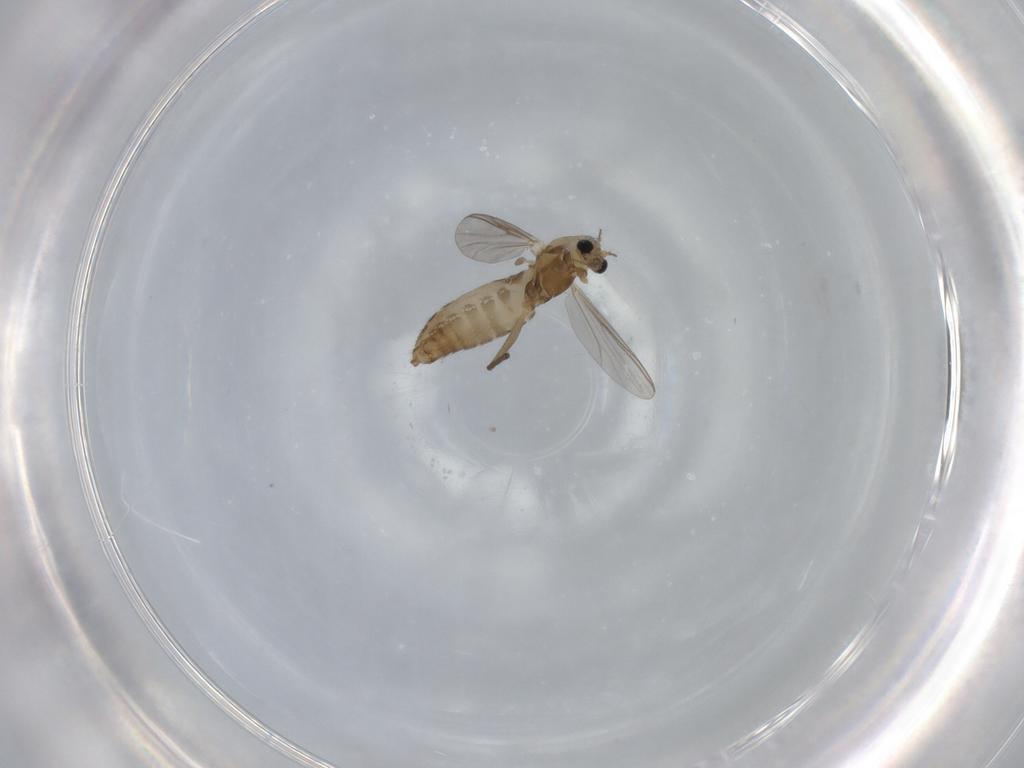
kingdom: Animalia
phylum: Arthropoda
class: Insecta
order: Diptera
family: Chironomidae
